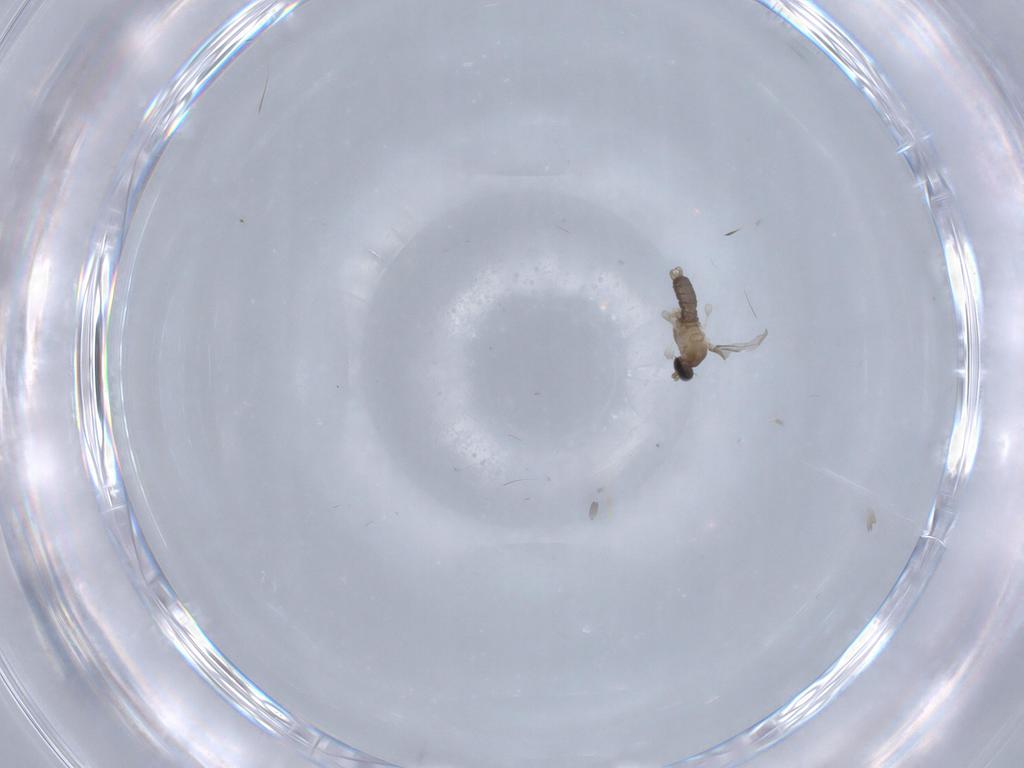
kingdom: Animalia
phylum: Arthropoda
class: Insecta
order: Diptera
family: Cecidomyiidae
